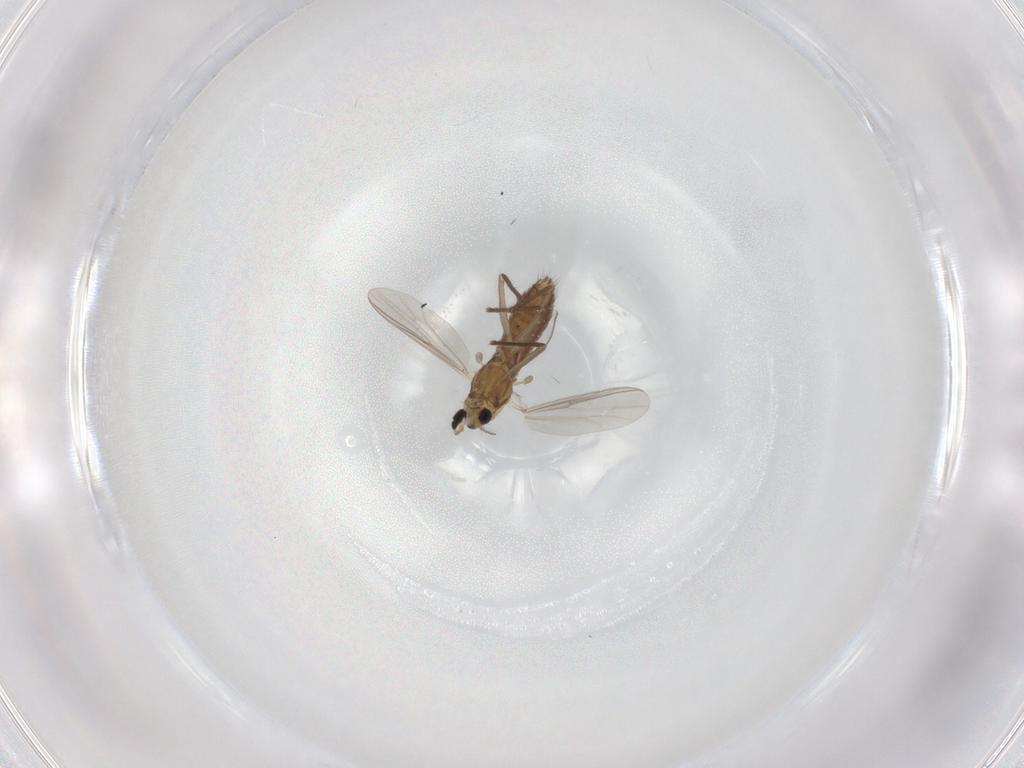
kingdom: Animalia
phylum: Arthropoda
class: Insecta
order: Diptera
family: Chironomidae
